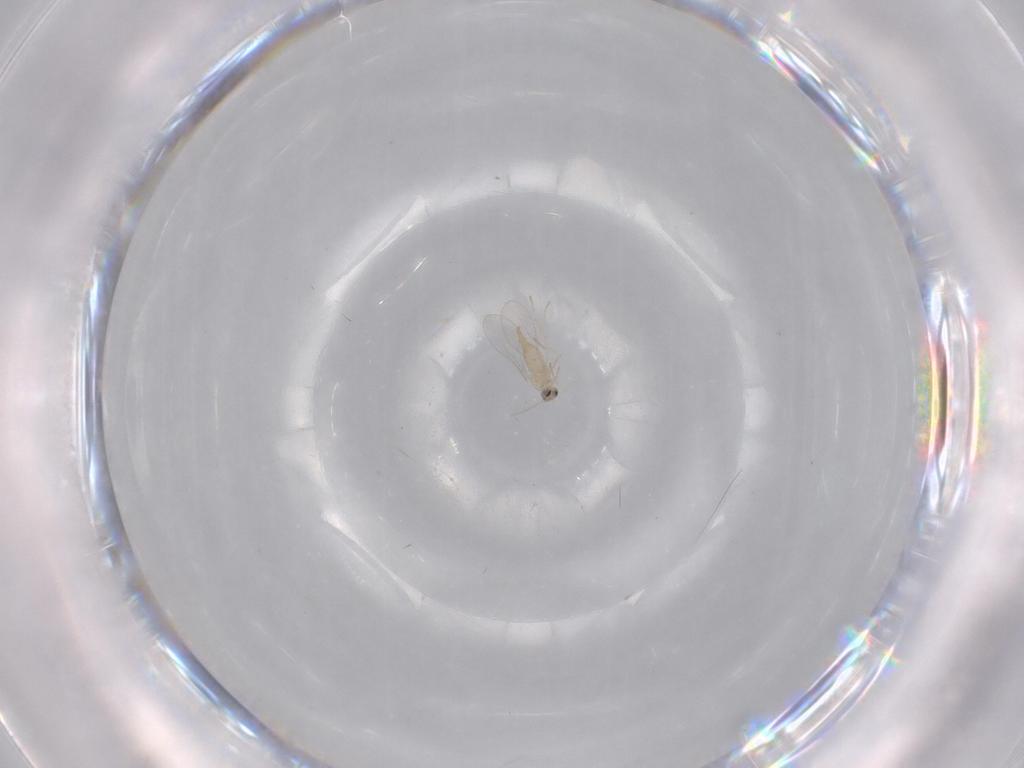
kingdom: Animalia
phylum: Arthropoda
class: Insecta
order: Diptera
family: Cecidomyiidae
